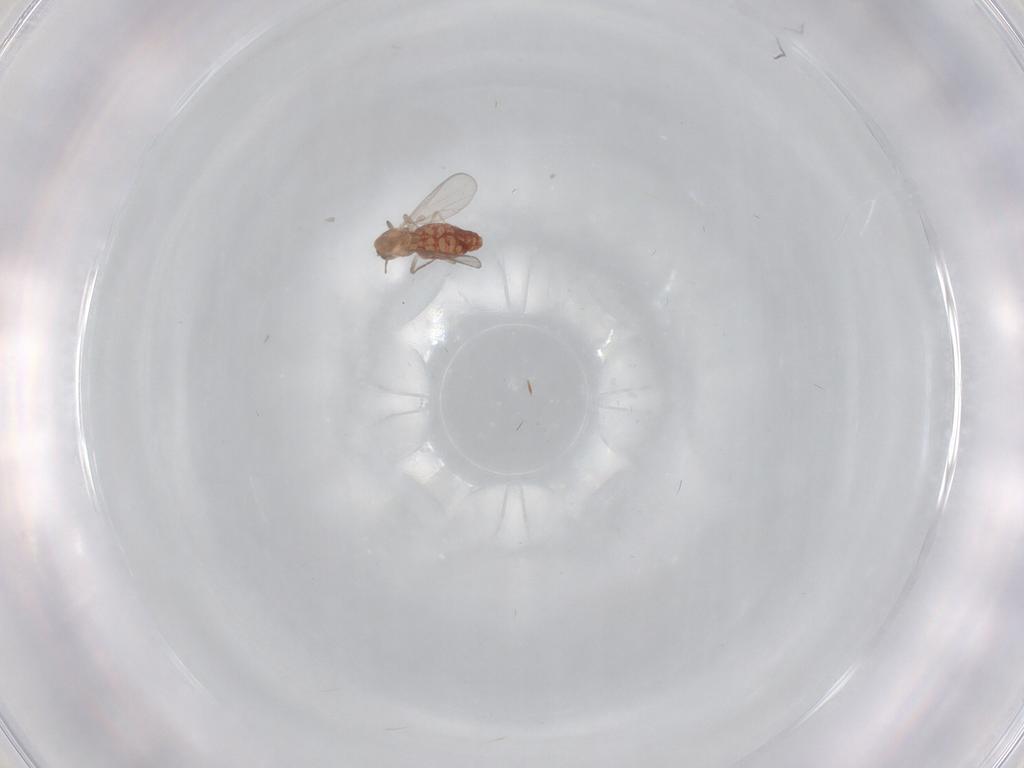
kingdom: Animalia
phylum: Arthropoda
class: Insecta
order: Diptera
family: Chironomidae
